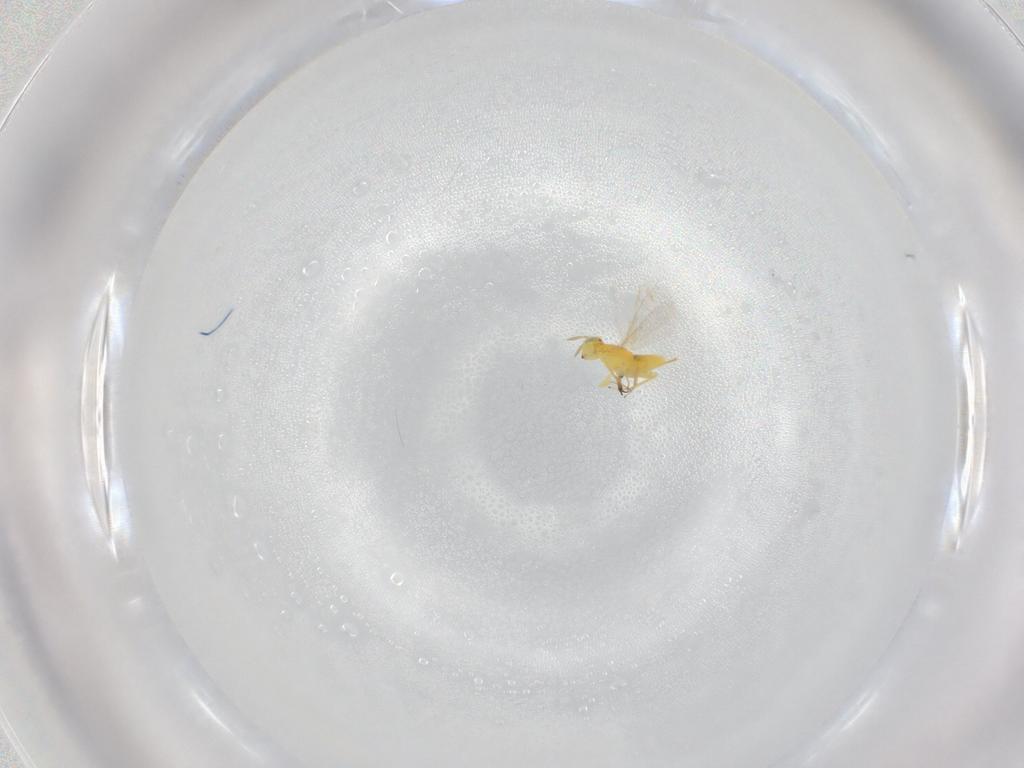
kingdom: Animalia
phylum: Arthropoda
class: Insecta
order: Hymenoptera
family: Aphelinidae
